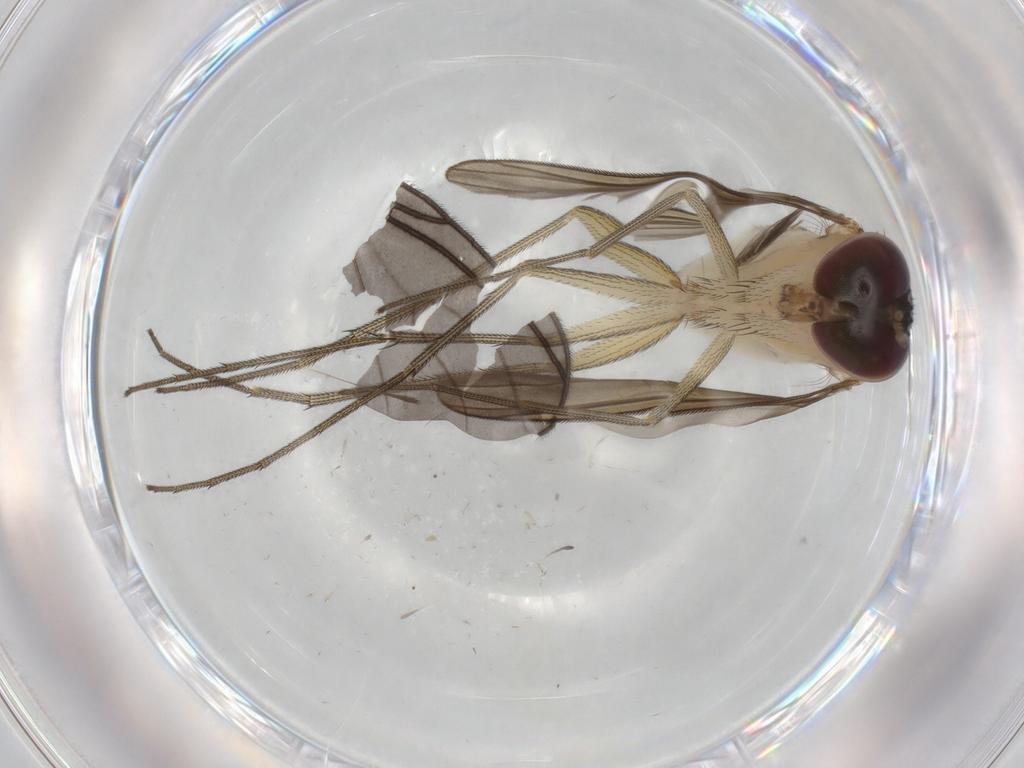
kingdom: Animalia
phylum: Arthropoda
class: Insecta
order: Diptera
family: Dolichopodidae
